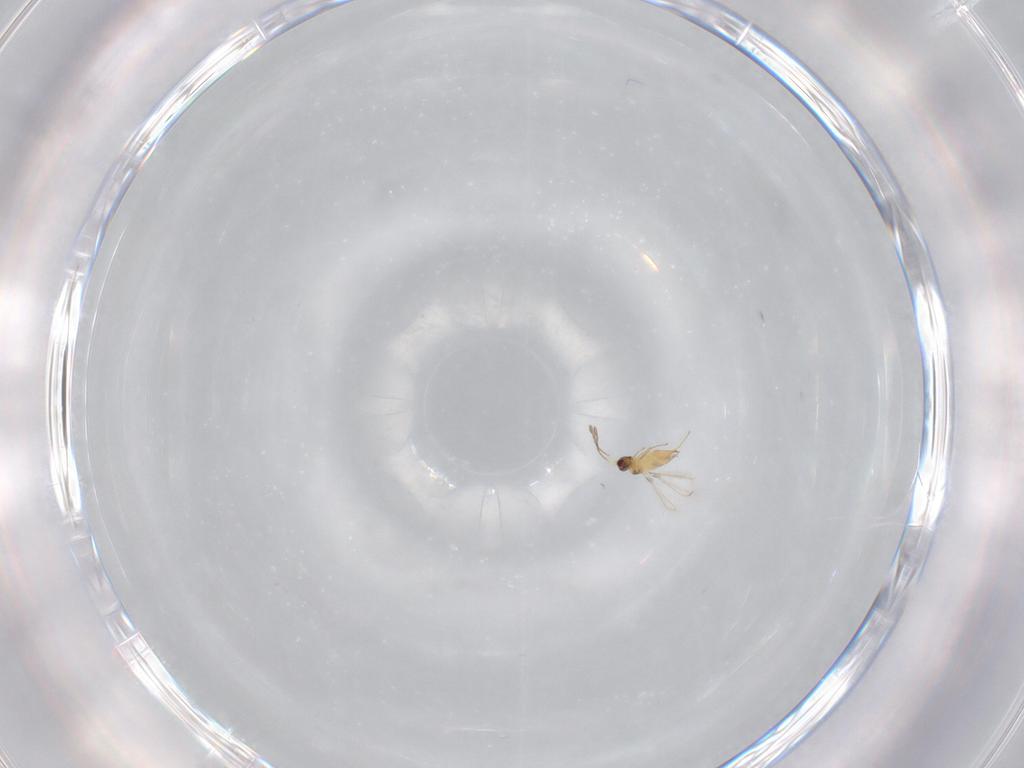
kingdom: Animalia
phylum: Arthropoda
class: Insecta
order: Hymenoptera
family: Mymaridae
